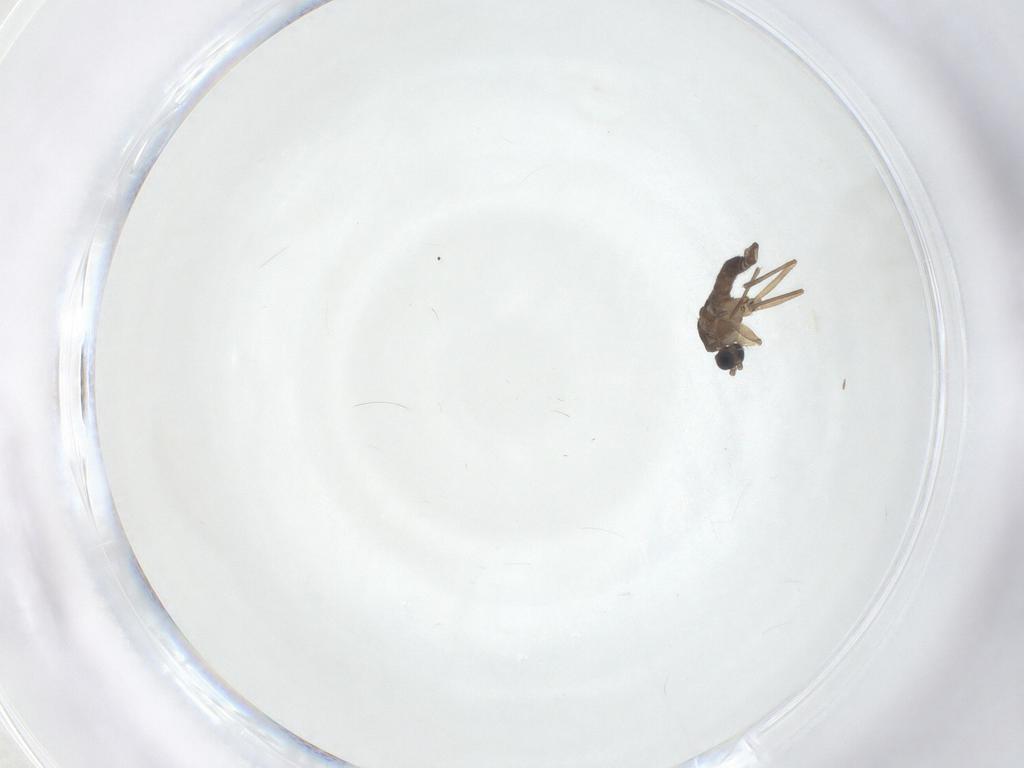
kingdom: Animalia
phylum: Arthropoda
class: Insecta
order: Diptera
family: Sciaridae
